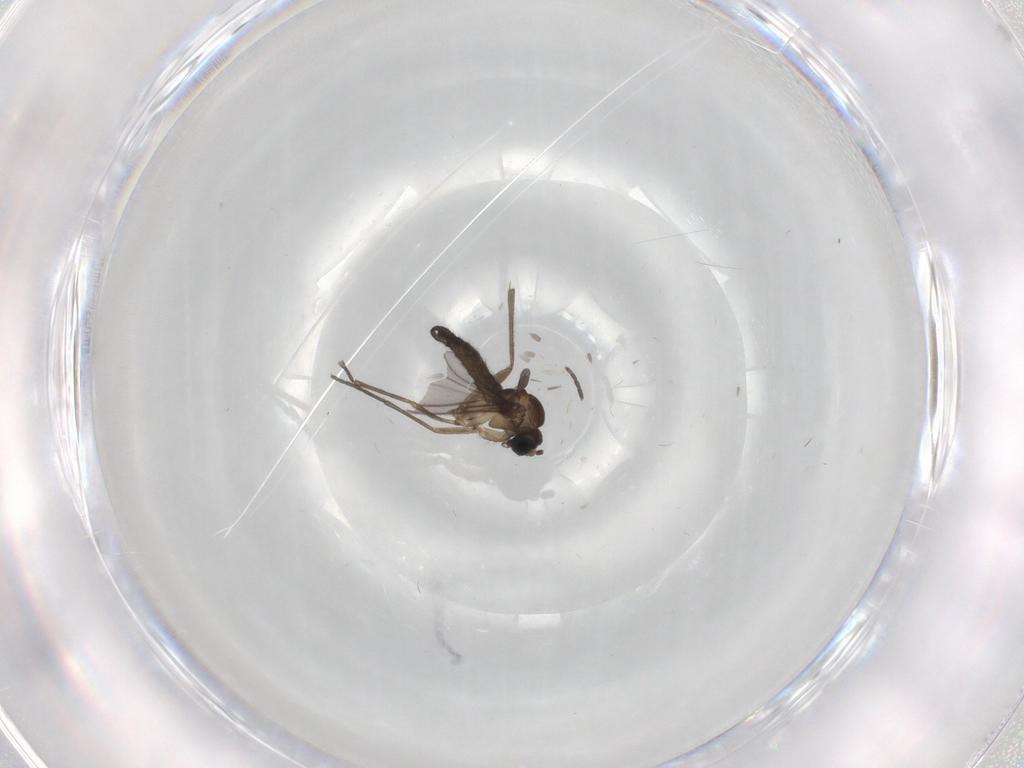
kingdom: Animalia
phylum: Arthropoda
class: Insecta
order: Diptera
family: Sciaridae
